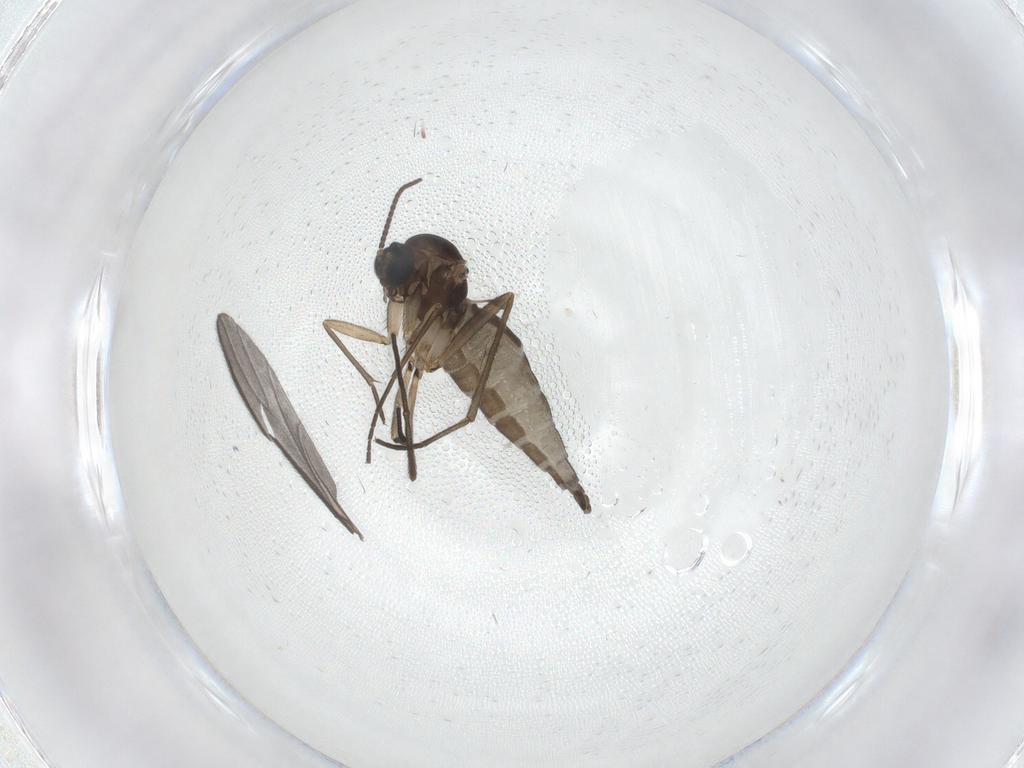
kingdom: Animalia
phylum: Arthropoda
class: Insecta
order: Diptera
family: Sciaridae
